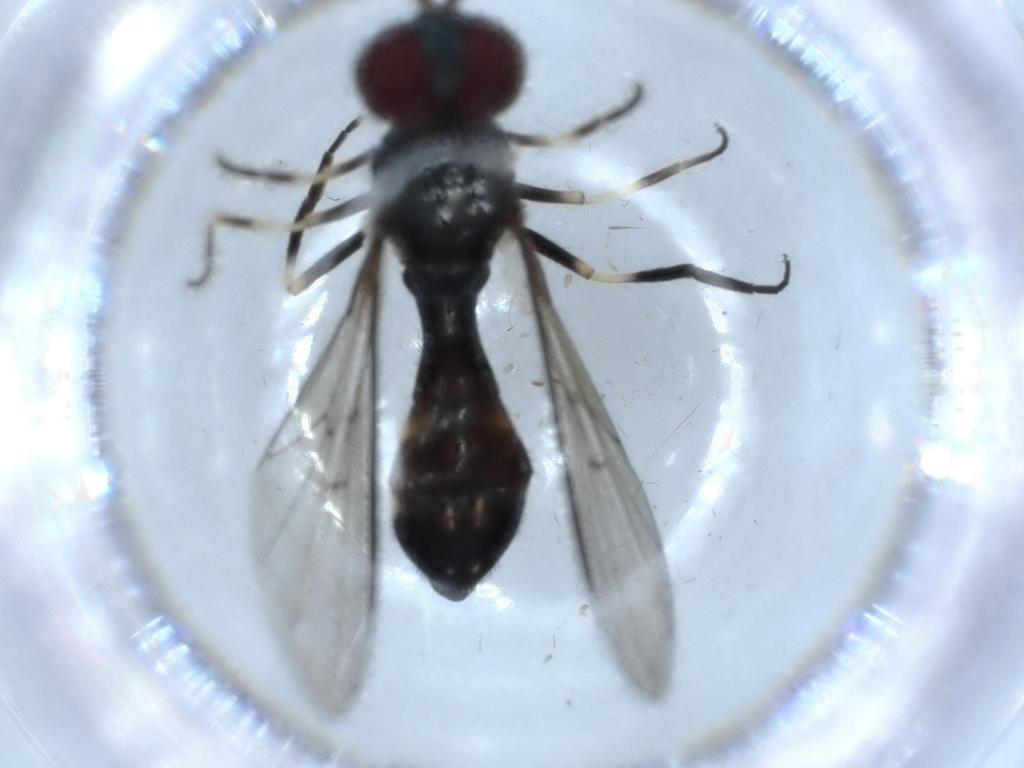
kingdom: Animalia
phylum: Arthropoda
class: Insecta
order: Diptera
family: Syrphidae
